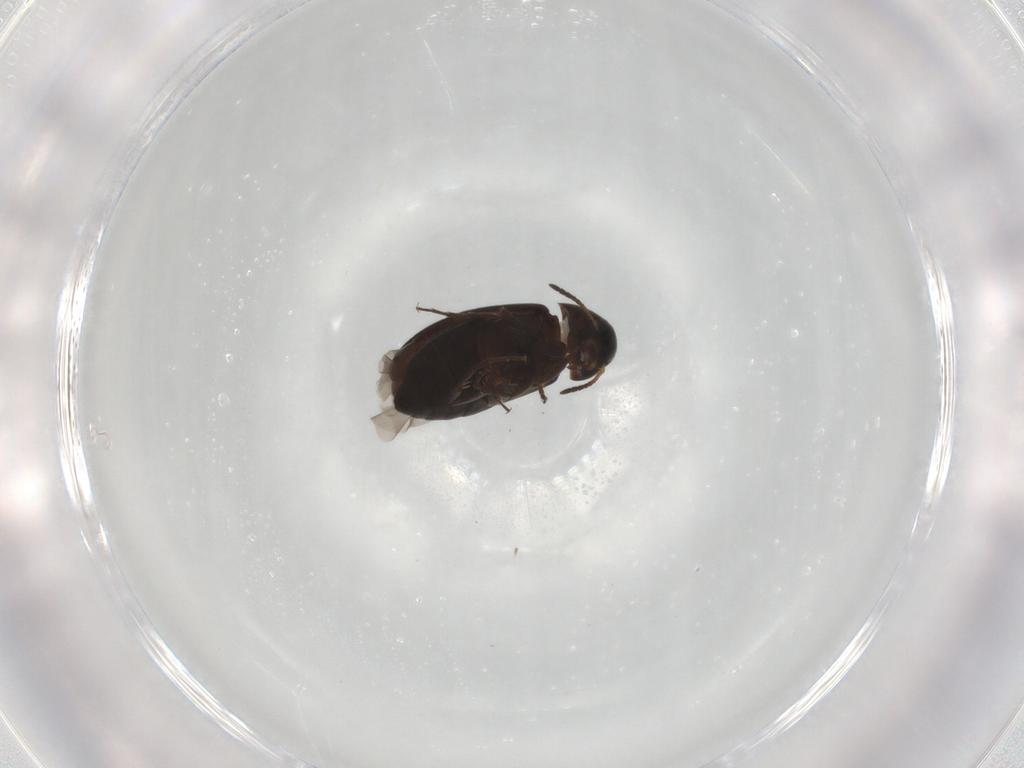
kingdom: Animalia
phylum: Arthropoda
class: Insecta
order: Coleoptera
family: Scraptiidae
